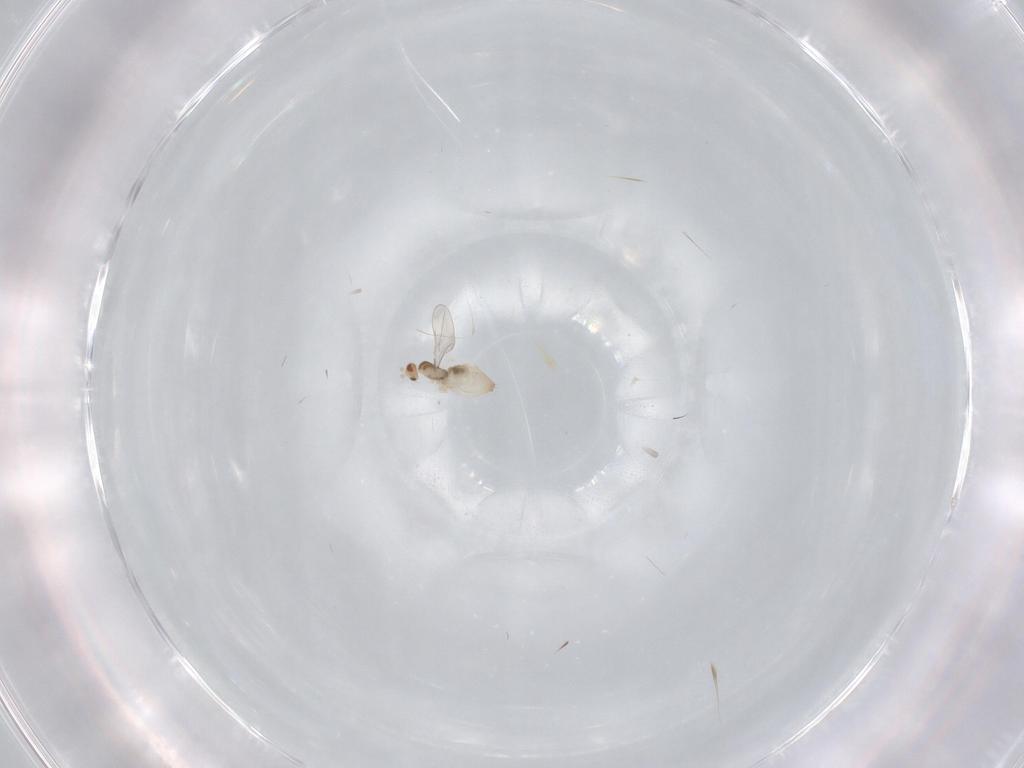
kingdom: Animalia
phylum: Arthropoda
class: Insecta
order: Diptera
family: Cecidomyiidae
